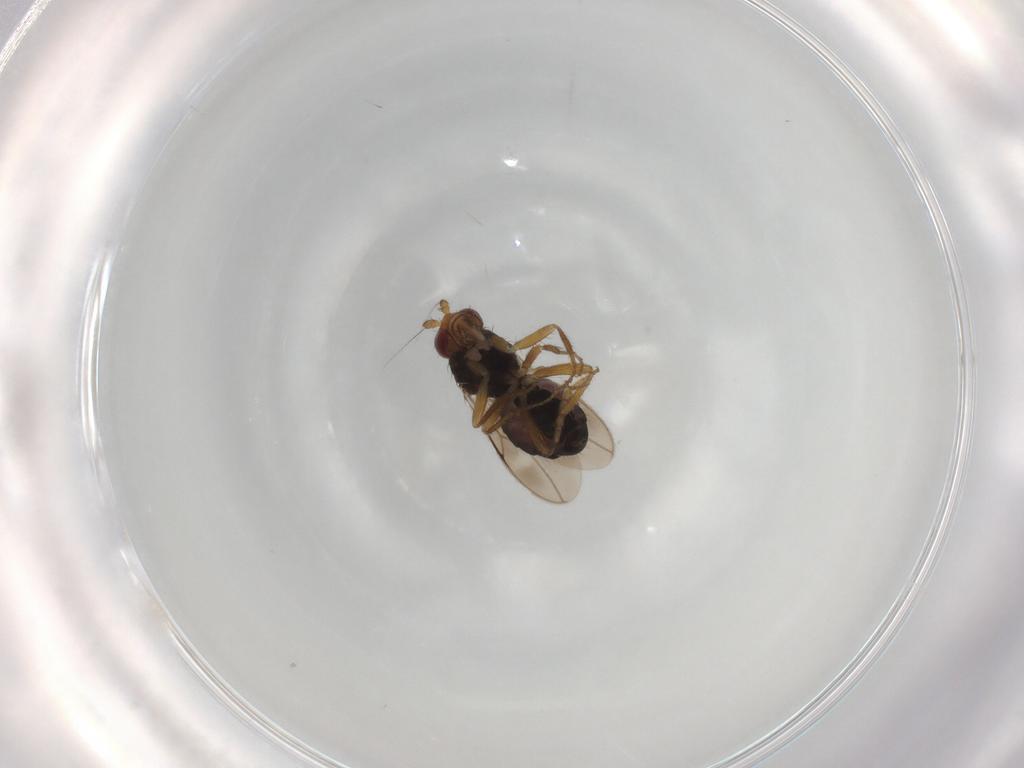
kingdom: Animalia
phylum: Arthropoda
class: Insecta
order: Diptera
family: Sphaeroceridae
